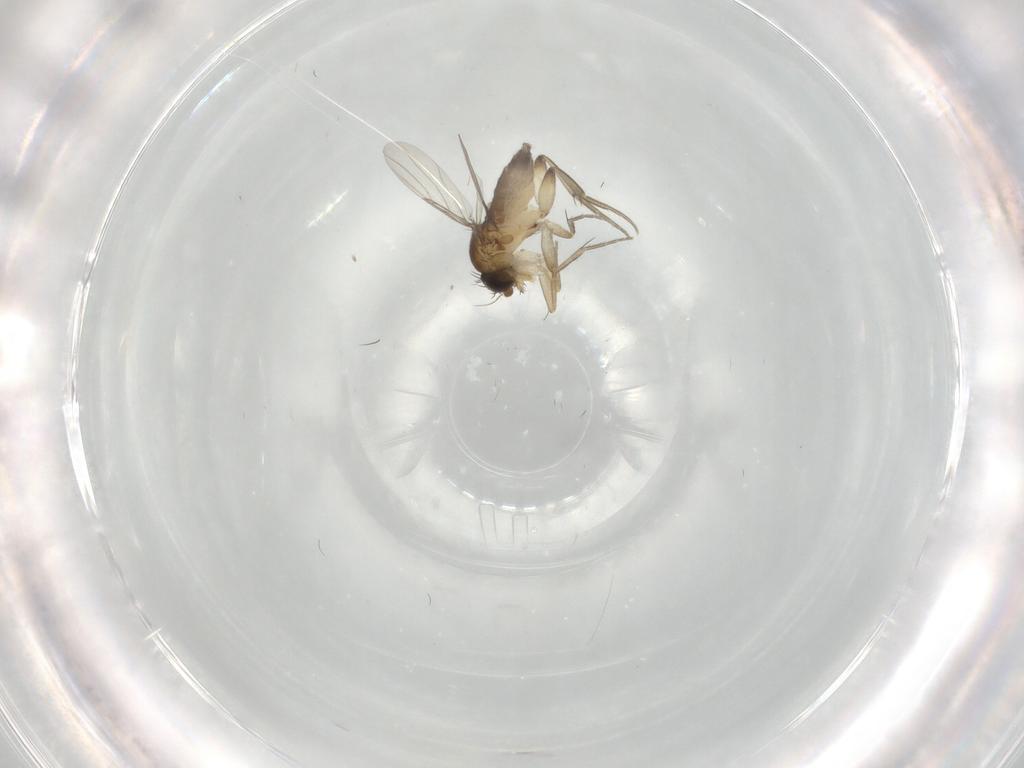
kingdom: Animalia
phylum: Arthropoda
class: Insecta
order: Diptera
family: Phoridae
